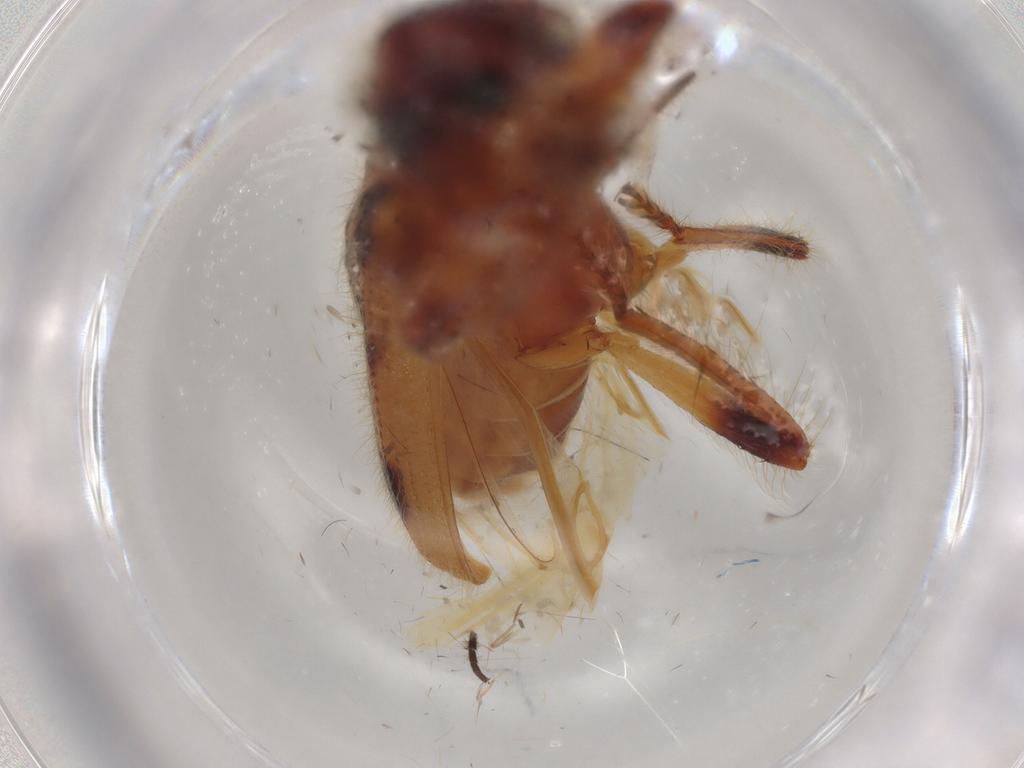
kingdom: Animalia
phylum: Arthropoda
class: Insecta
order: Coleoptera
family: Cleridae
